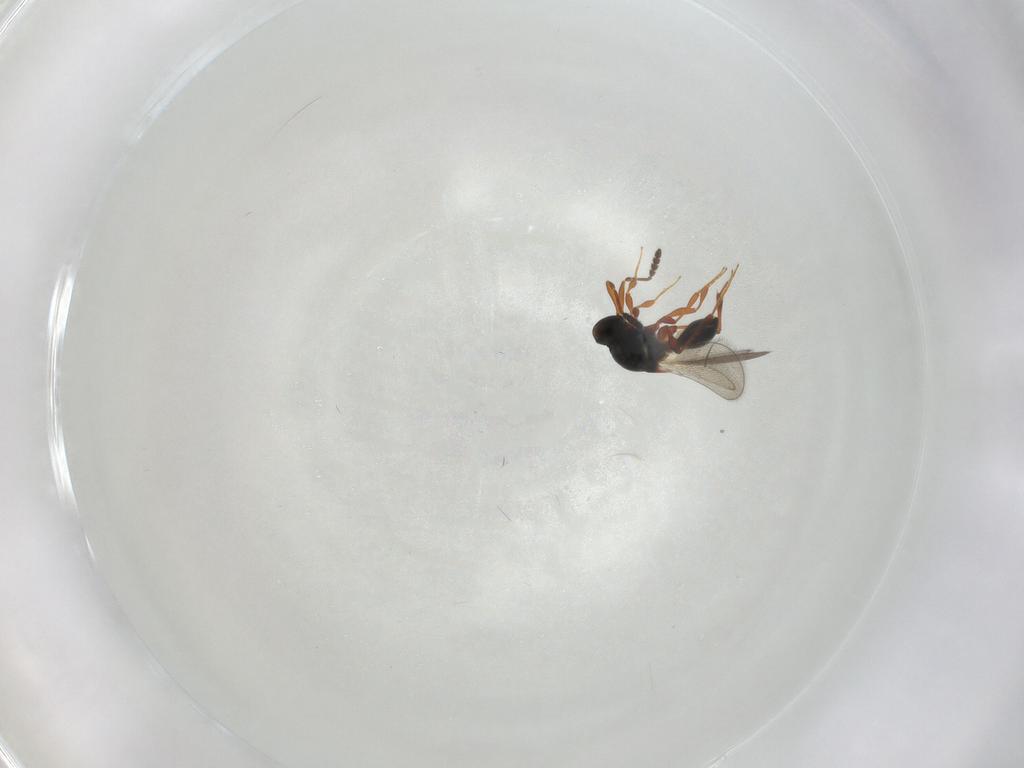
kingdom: Animalia
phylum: Arthropoda
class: Insecta
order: Hymenoptera
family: Platygastridae
